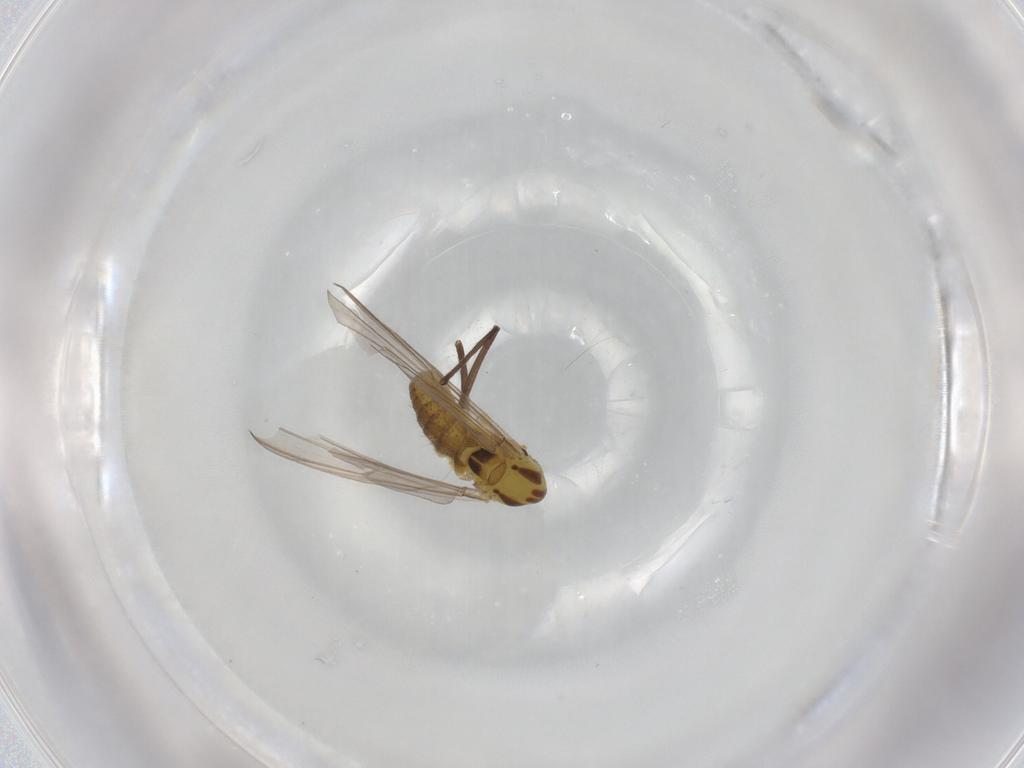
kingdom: Animalia
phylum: Arthropoda
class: Insecta
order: Diptera
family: Chironomidae
